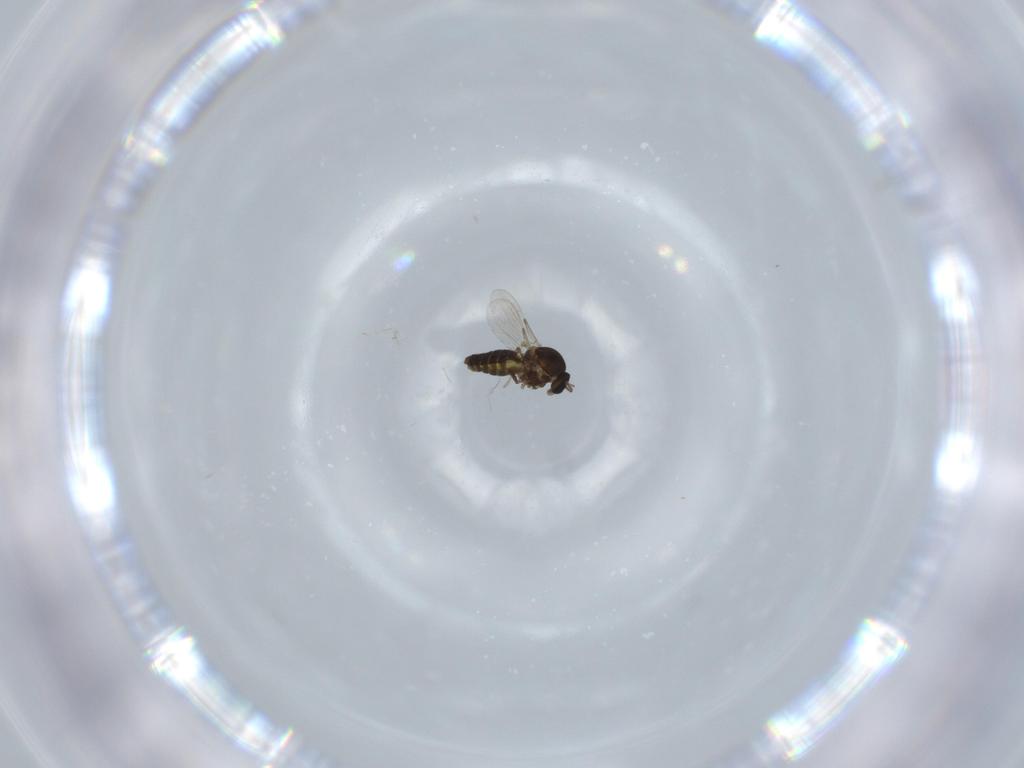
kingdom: Animalia
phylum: Arthropoda
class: Insecta
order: Diptera
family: Ceratopogonidae
